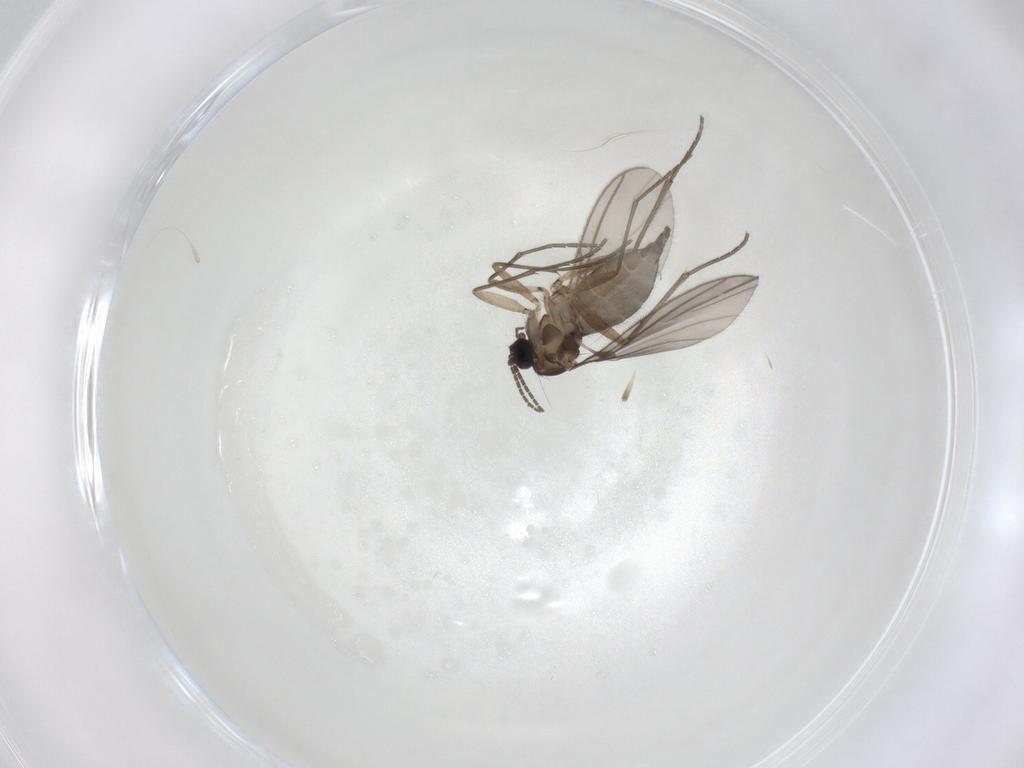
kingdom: Animalia
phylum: Arthropoda
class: Insecta
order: Diptera
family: Sciaridae
